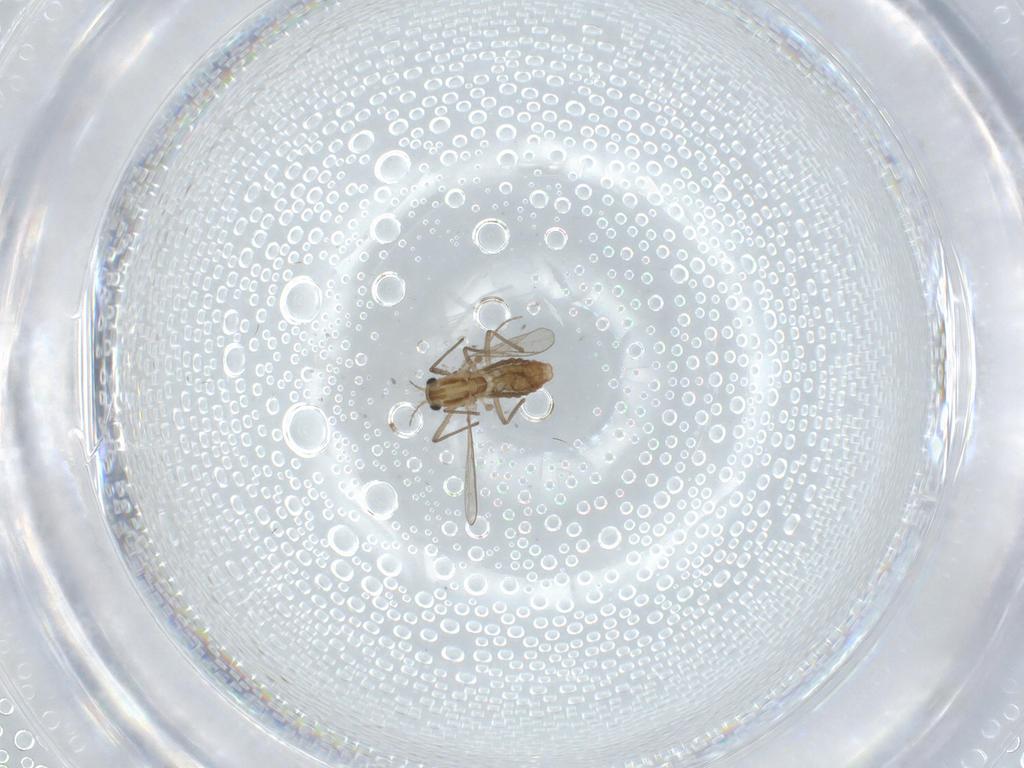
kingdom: Animalia
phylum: Arthropoda
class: Insecta
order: Diptera
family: Chironomidae
